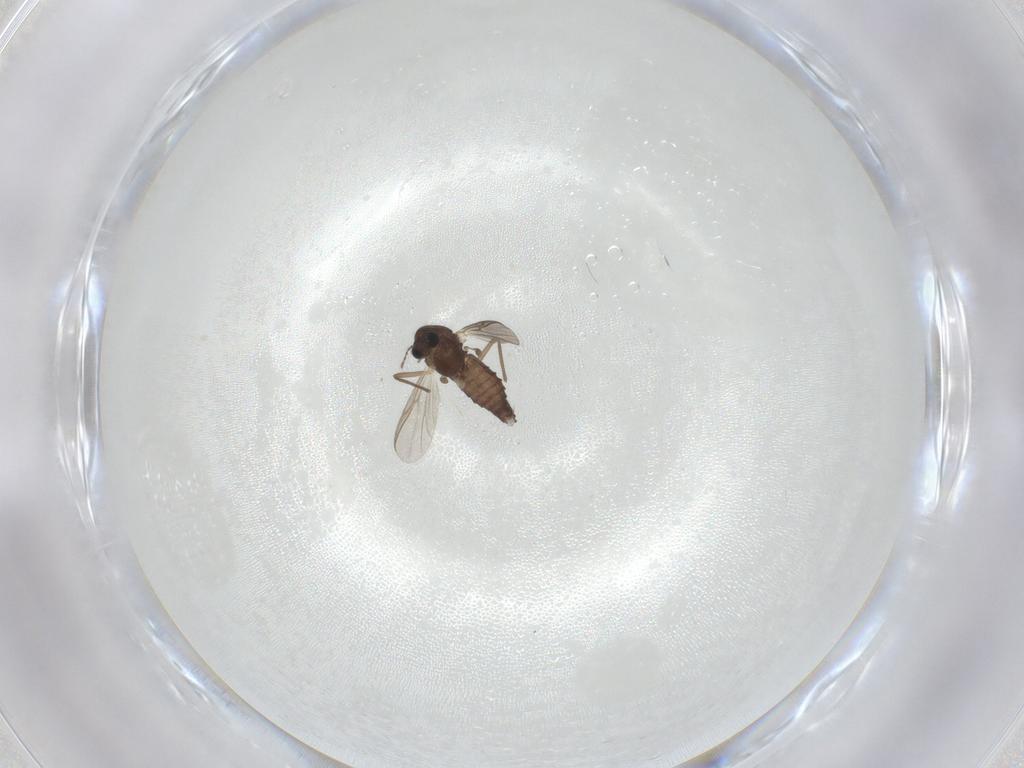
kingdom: Animalia
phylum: Arthropoda
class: Insecta
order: Diptera
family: Chironomidae
